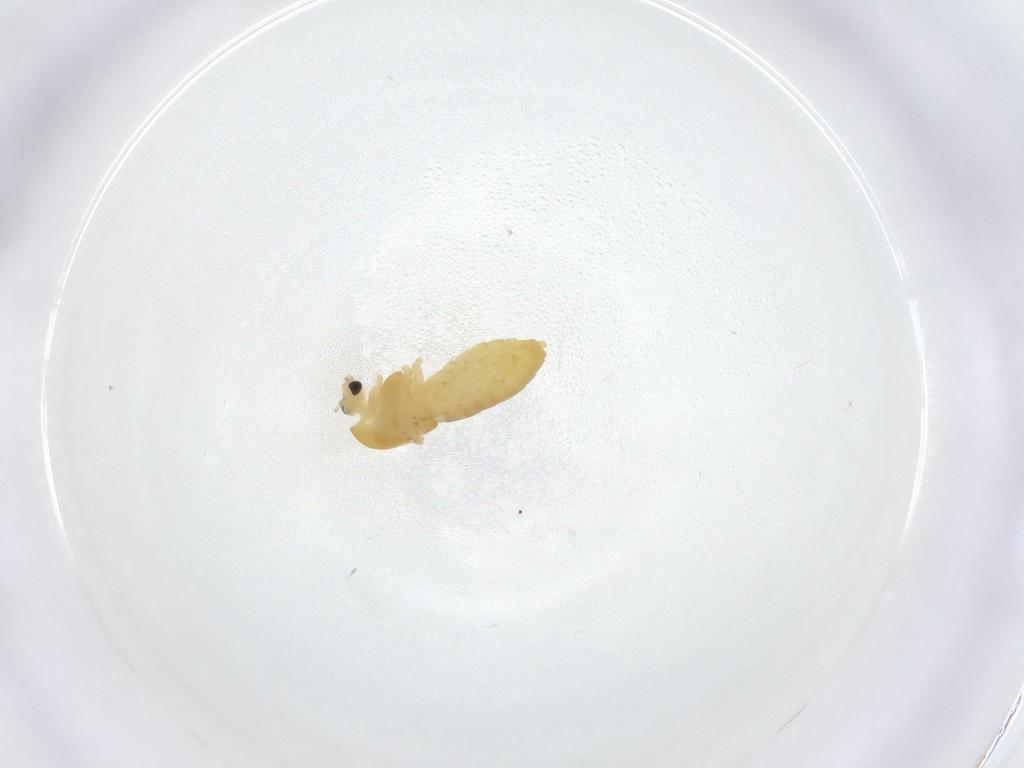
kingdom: Animalia
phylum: Arthropoda
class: Insecta
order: Diptera
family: Chironomidae
